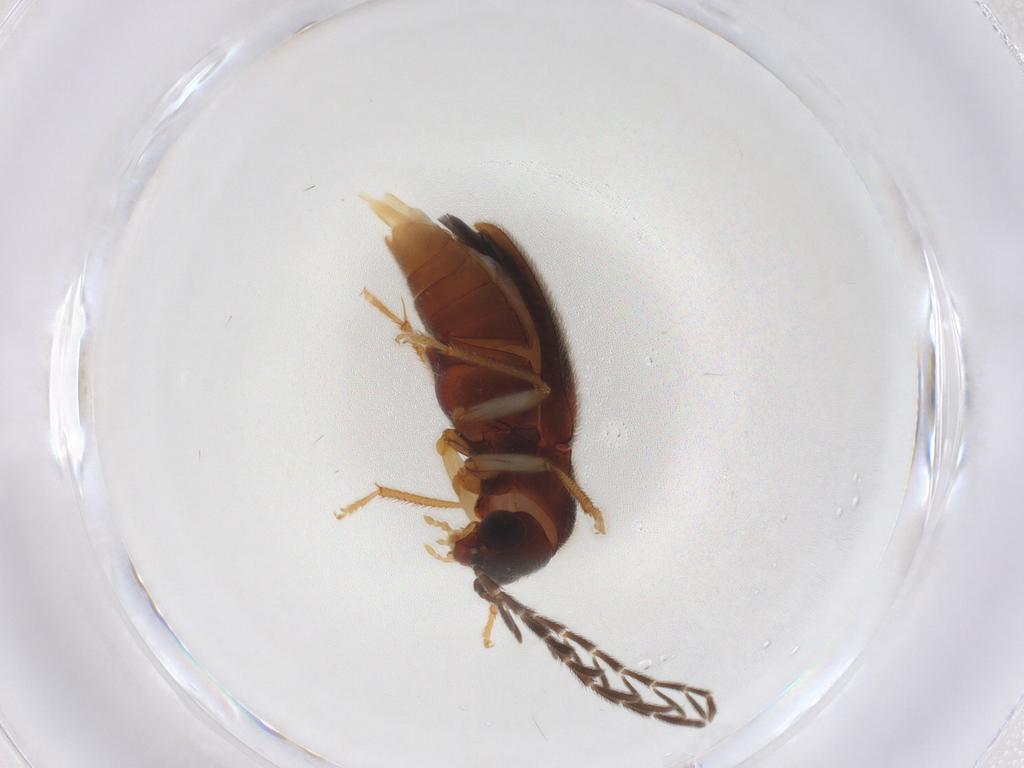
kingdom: Animalia
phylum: Arthropoda
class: Insecta
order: Coleoptera
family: Ptilodactylidae
